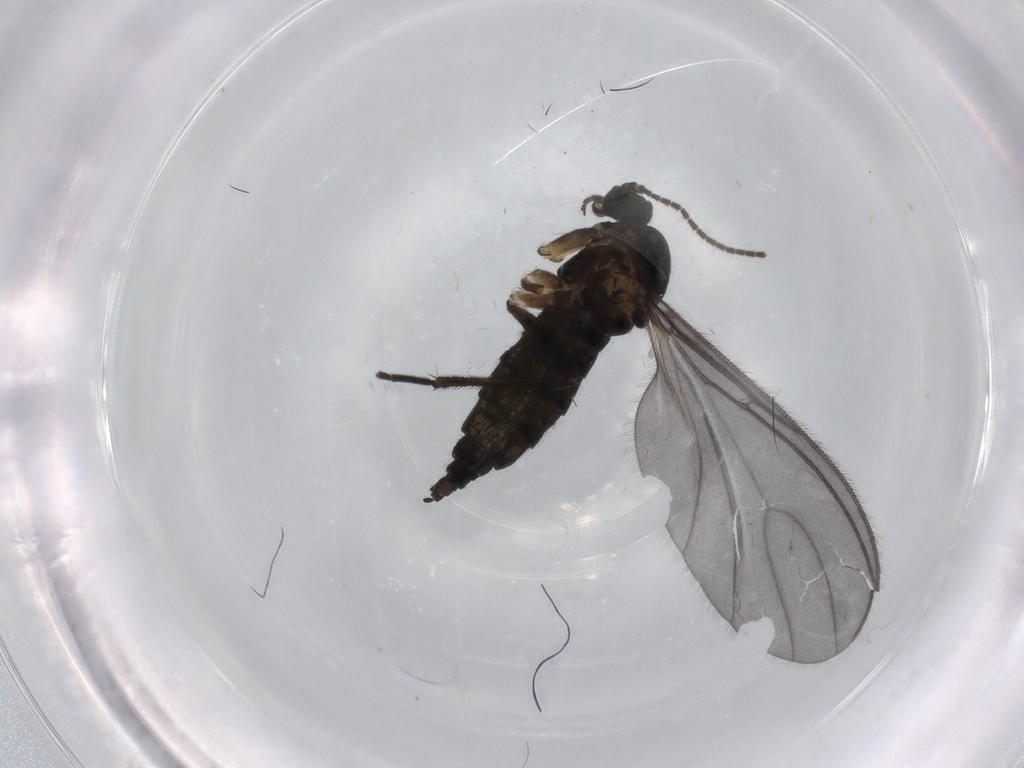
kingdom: Animalia
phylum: Arthropoda
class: Insecta
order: Diptera
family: Sciaridae
